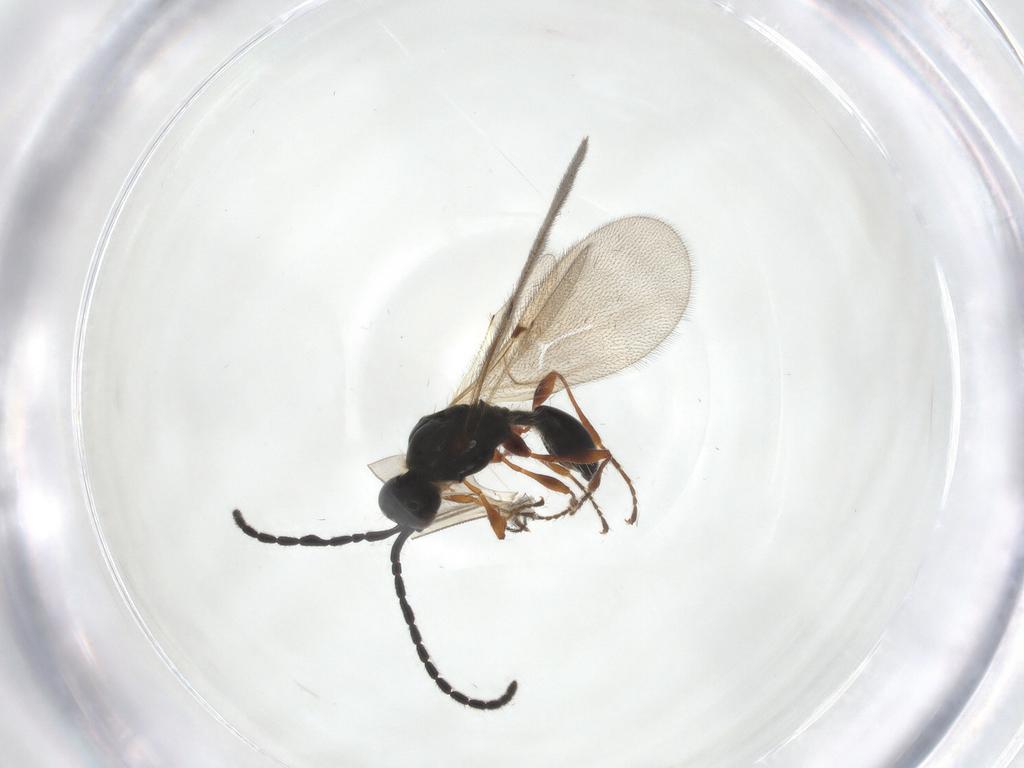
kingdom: Animalia
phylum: Arthropoda
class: Insecta
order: Hymenoptera
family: Diapriidae
